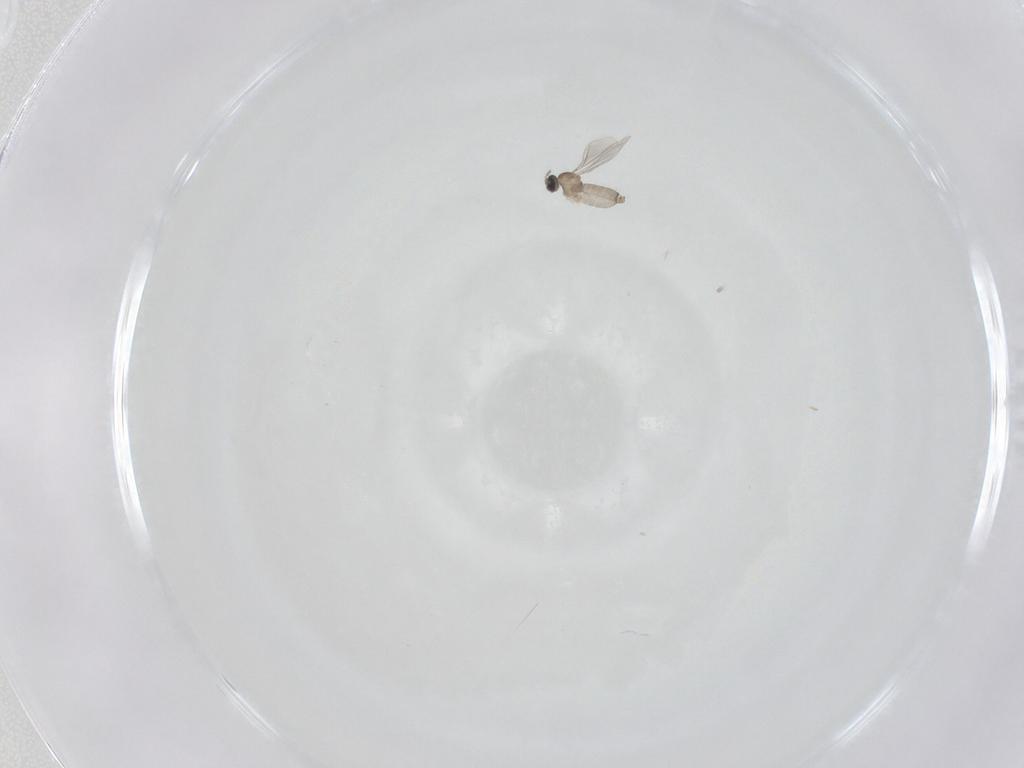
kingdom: Animalia
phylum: Arthropoda
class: Insecta
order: Diptera
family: Cecidomyiidae
